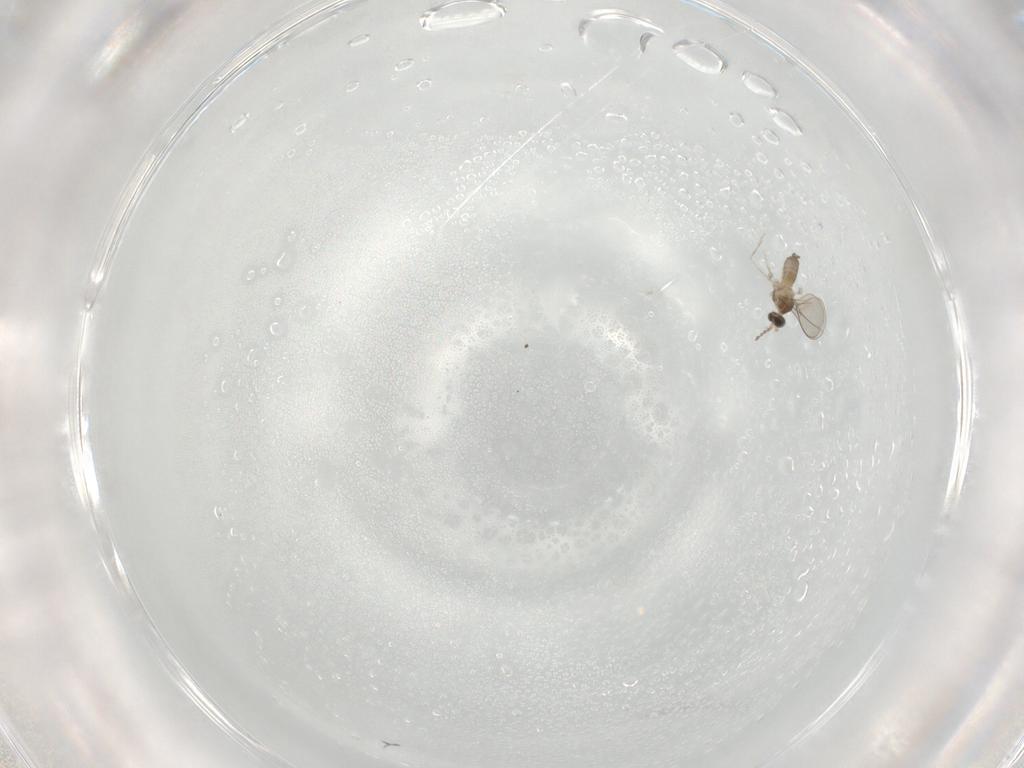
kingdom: Animalia
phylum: Arthropoda
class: Insecta
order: Diptera
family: Cecidomyiidae
